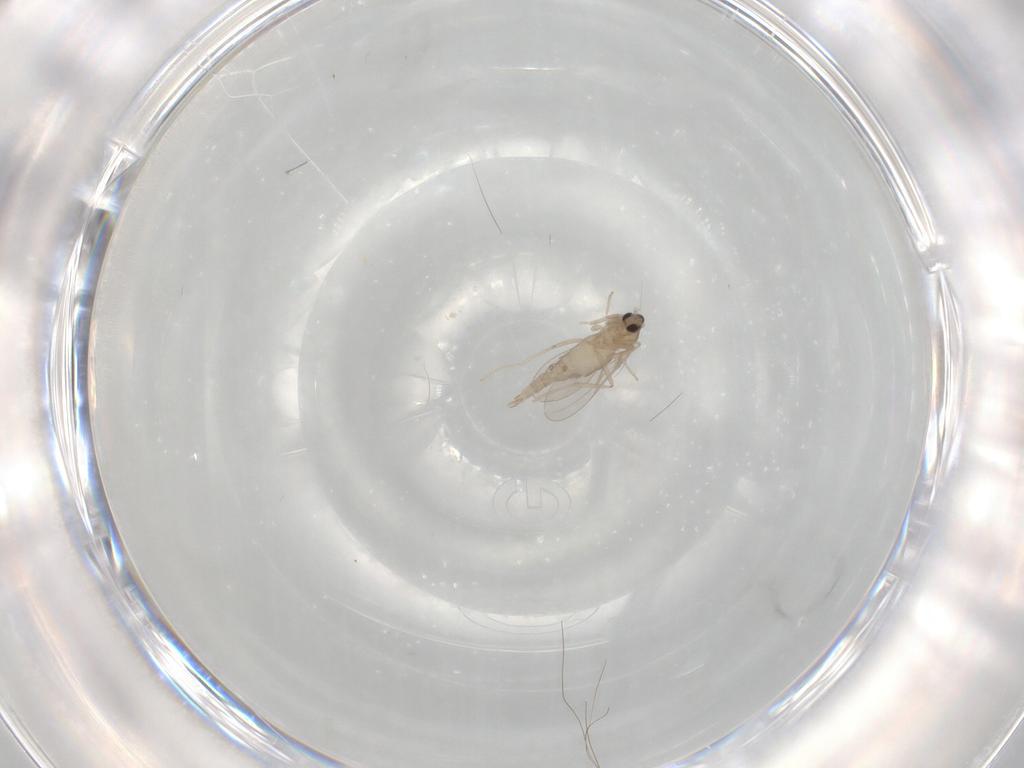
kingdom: Animalia
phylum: Arthropoda
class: Insecta
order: Diptera
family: Cecidomyiidae
